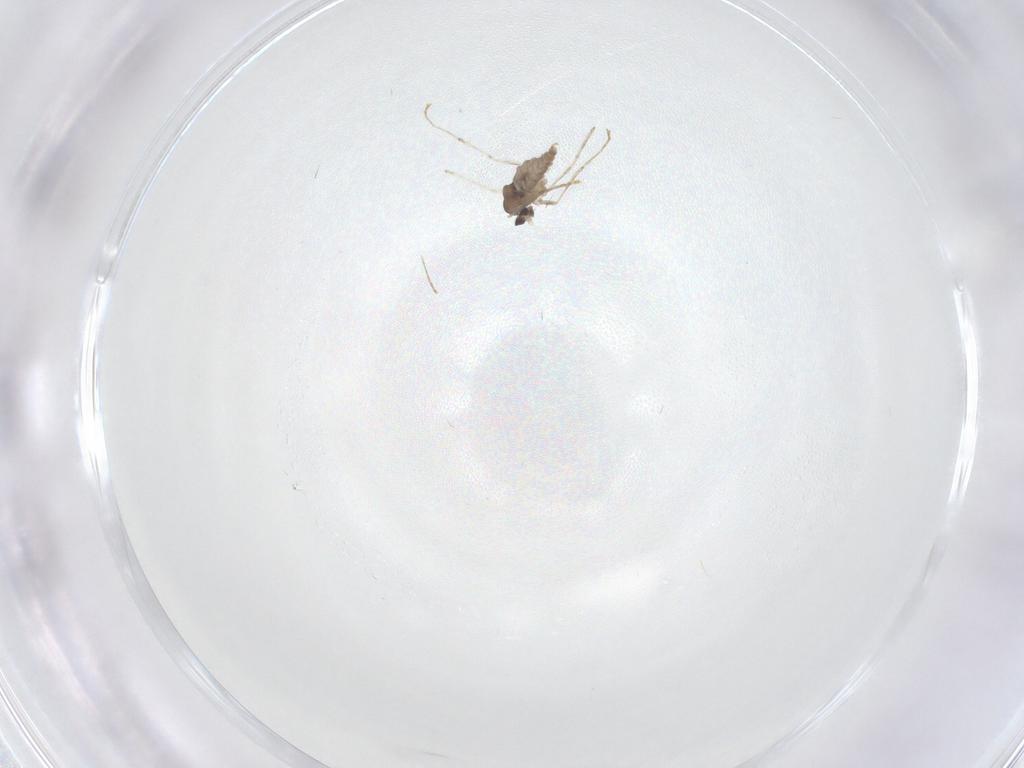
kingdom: Animalia
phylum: Arthropoda
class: Insecta
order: Diptera
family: Cecidomyiidae
